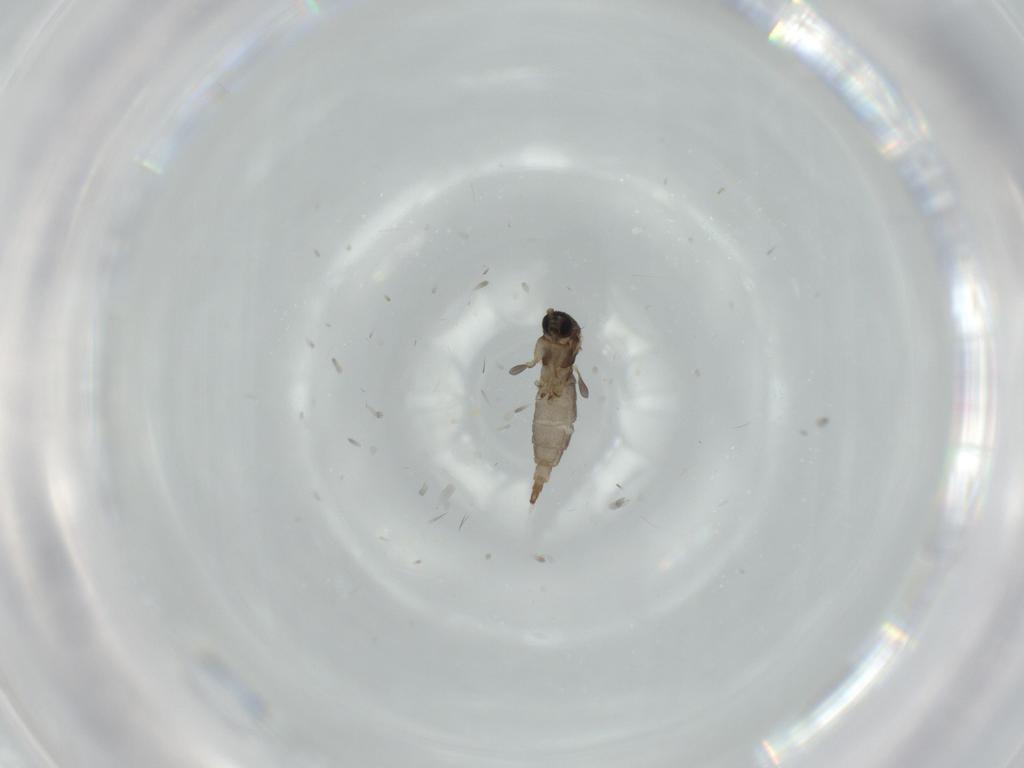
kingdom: Animalia
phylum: Arthropoda
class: Insecta
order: Diptera
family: Sciaridae
